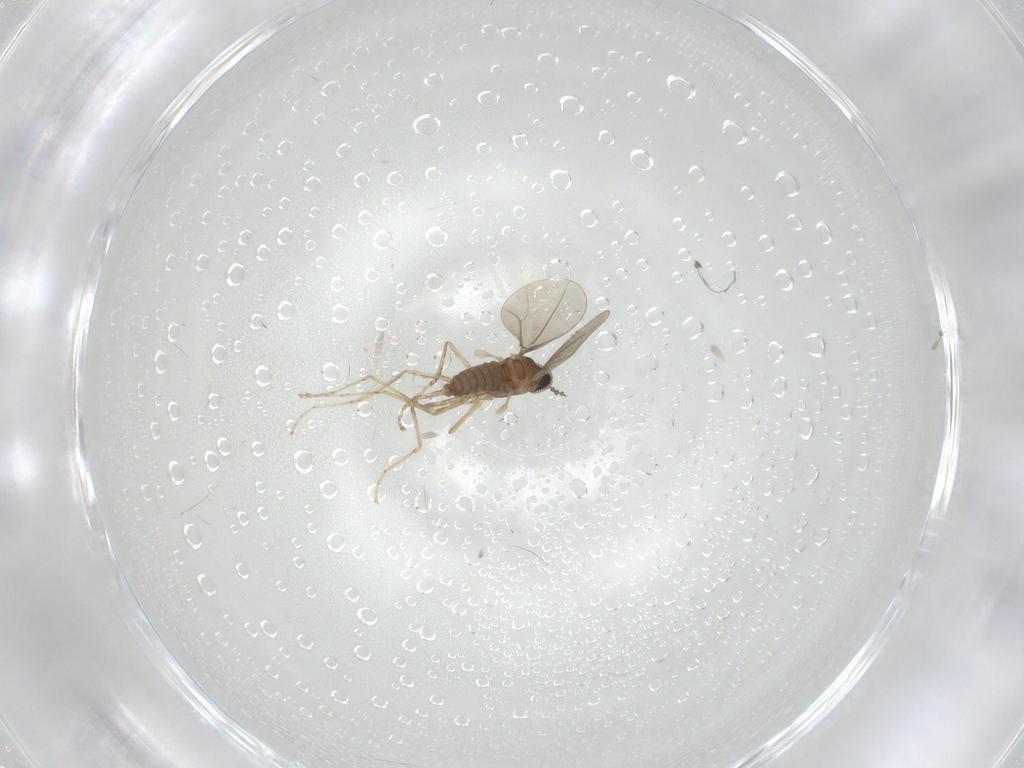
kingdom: Animalia
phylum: Arthropoda
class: Insecta
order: Diptera
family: Cecidomyiidae
